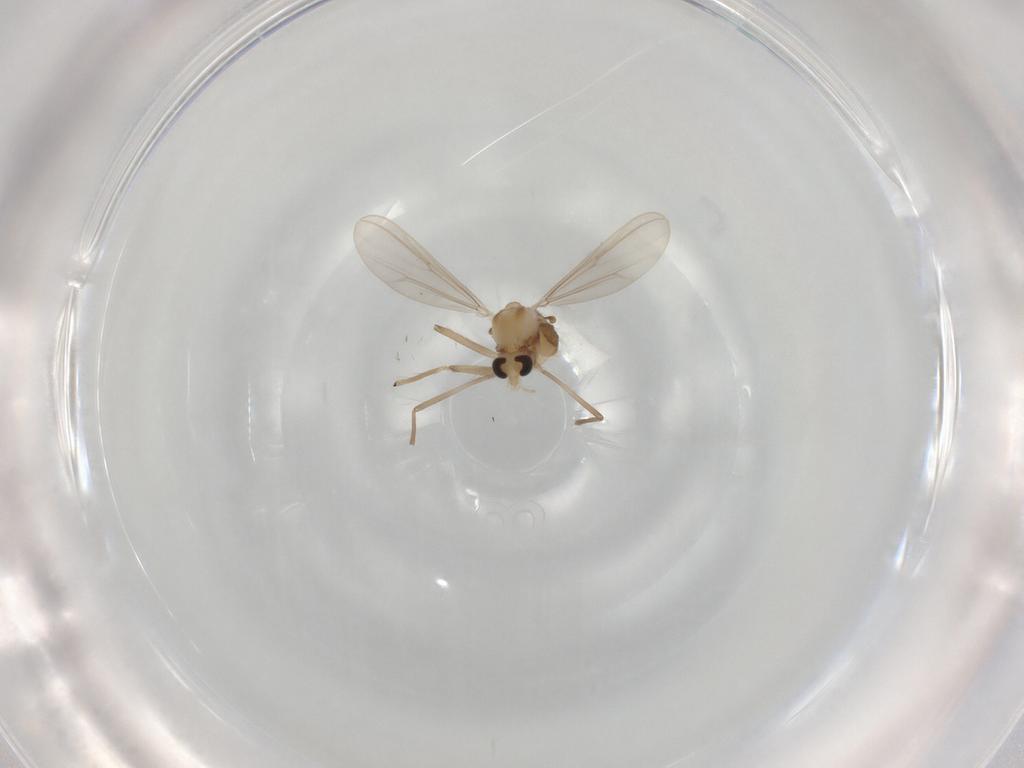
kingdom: Animalia
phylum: Arthropoda
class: Insecta
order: Diptera
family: Chironomidae
